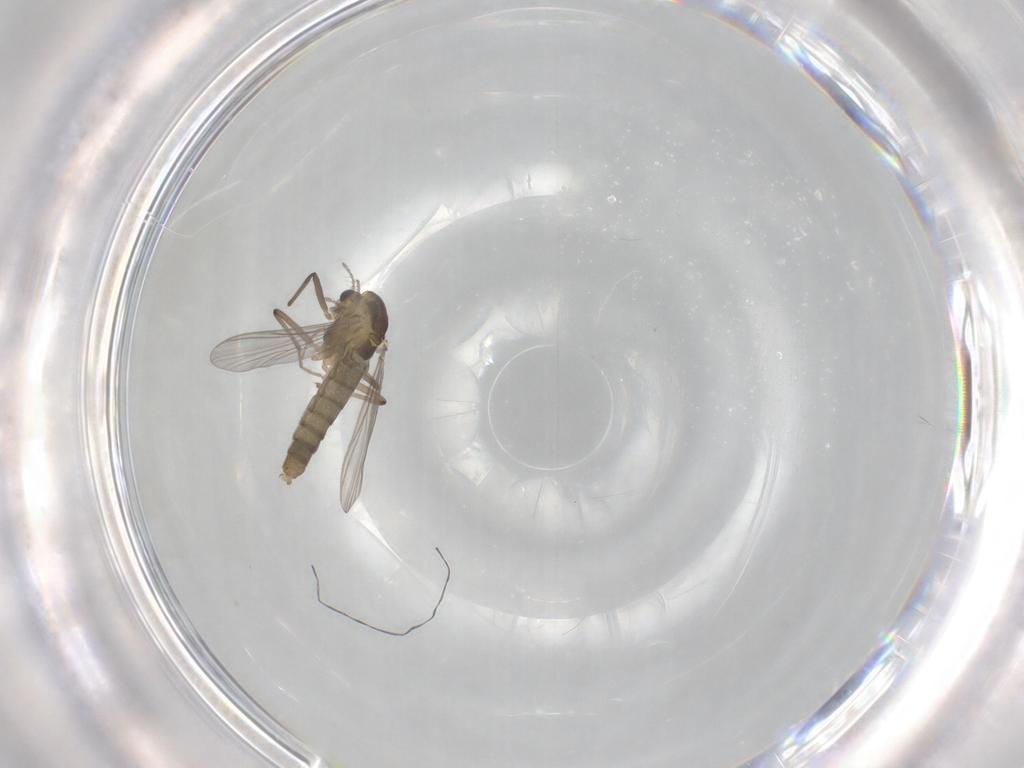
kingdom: Animalia
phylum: Arthropoda
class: Insecta
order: Diptera
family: Chironomidae
